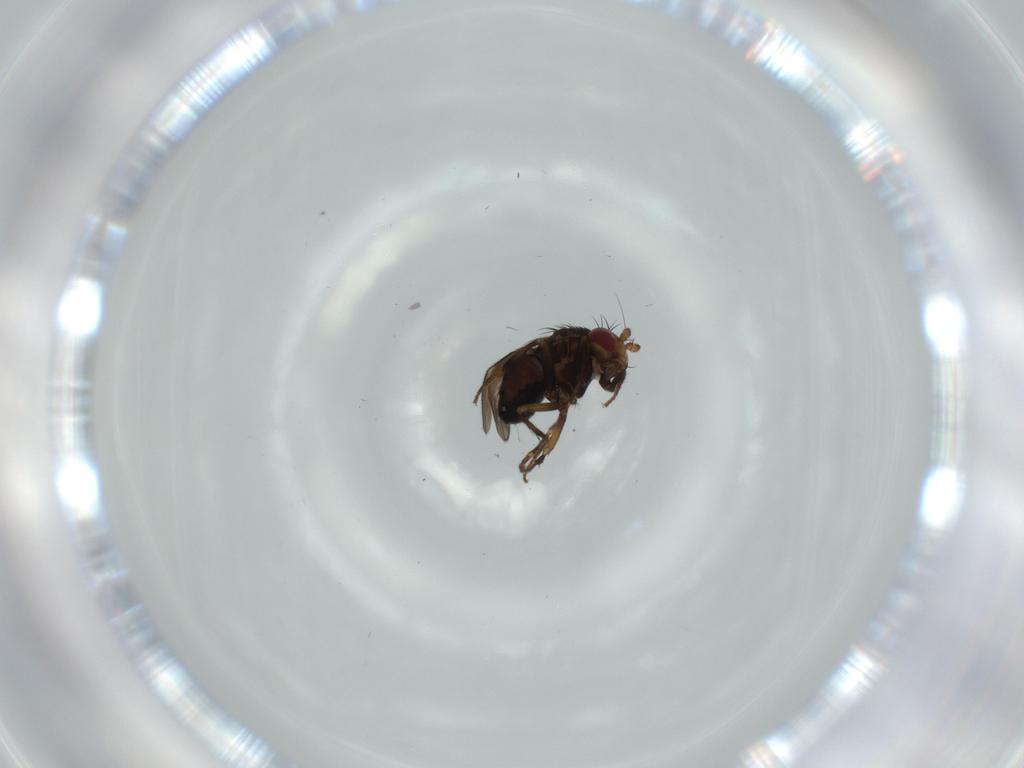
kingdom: Animalia
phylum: Arthropoda
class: Insecta
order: Diptera
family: Sphaeroceridae
